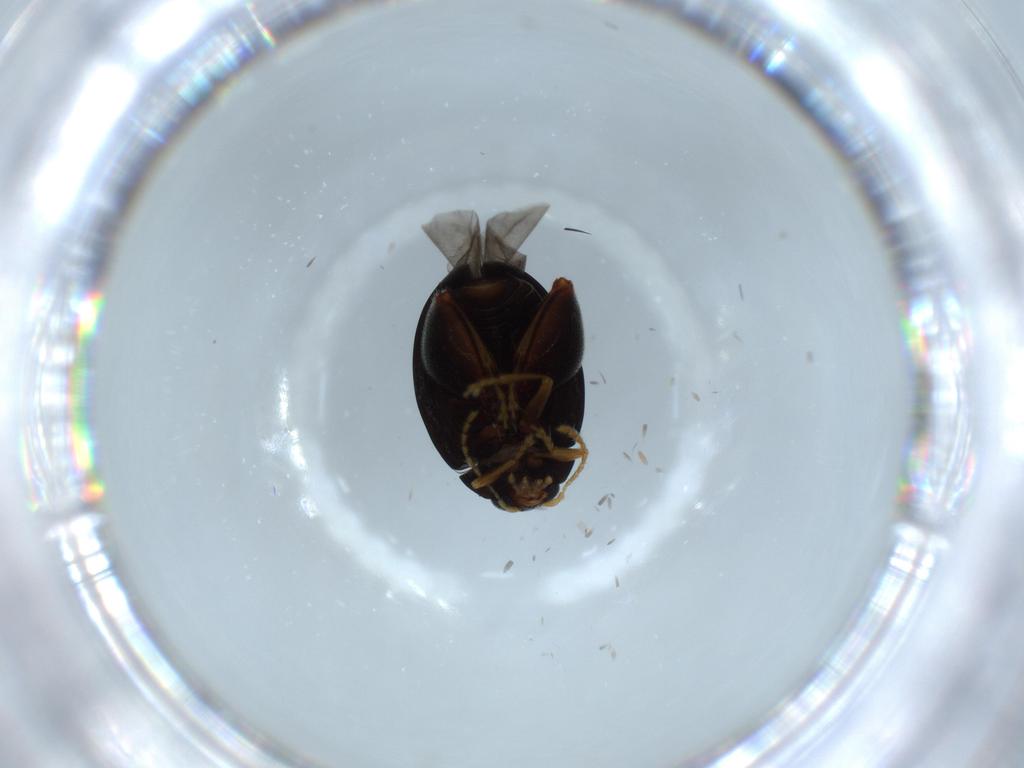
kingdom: Animalia
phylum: Arthropoda
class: Insecta
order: Coleoptera
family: Chrysomelidae
